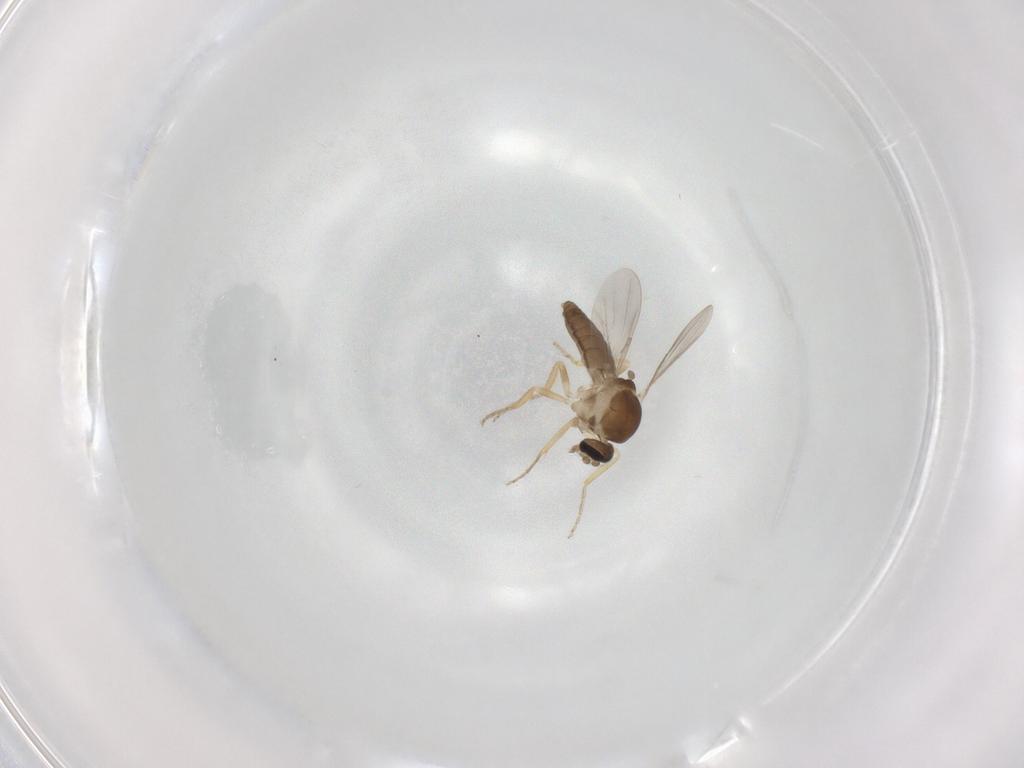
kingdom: Animalia
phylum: Arthropoda
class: Insecta
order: Diptera
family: Ceratopogonidae
